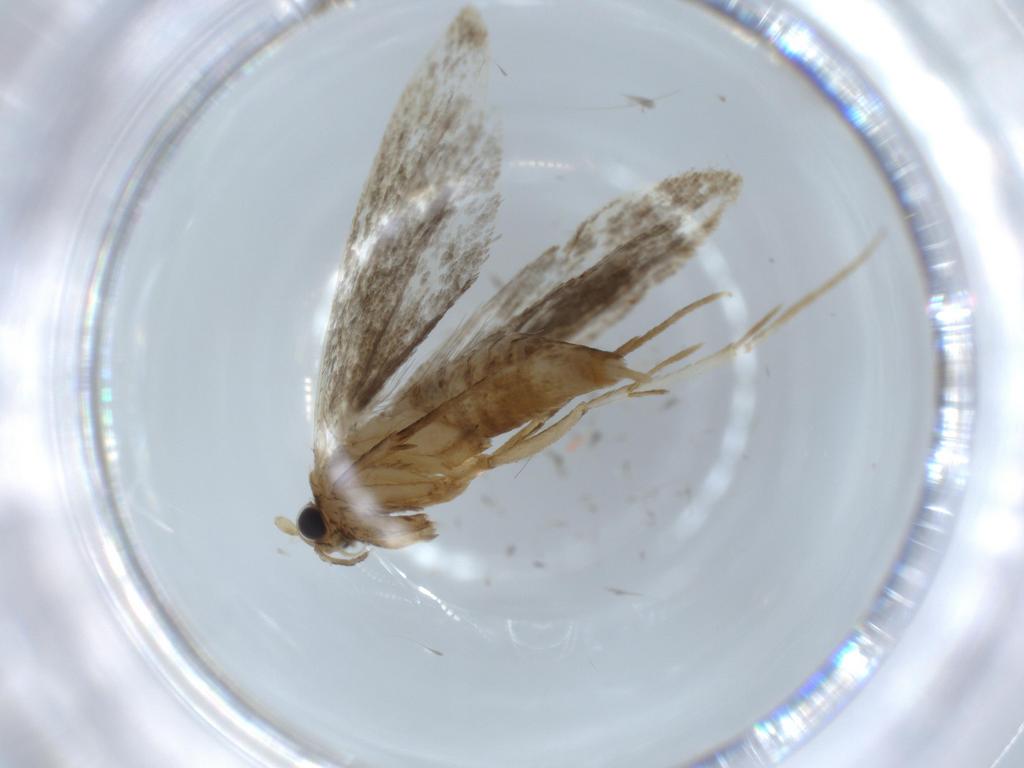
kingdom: Animalia
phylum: Arthropoda
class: Insecta
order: Lepidoptera
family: Tineidae
